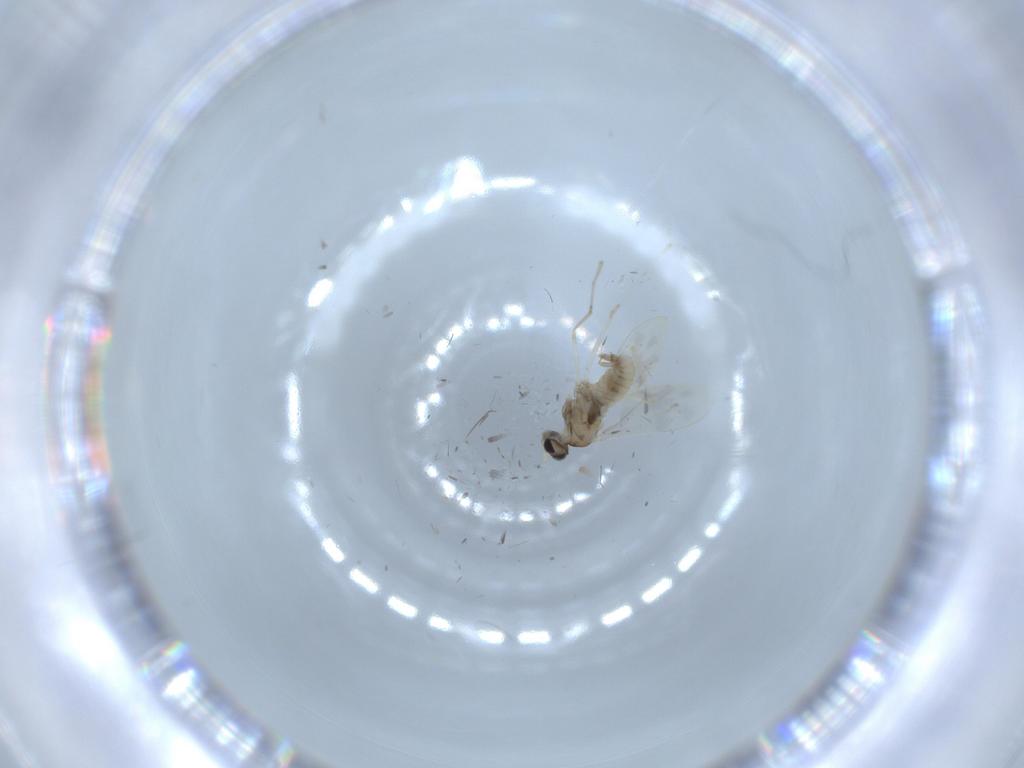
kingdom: Animalia
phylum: Arthropoda
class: Insecta
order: Diptera
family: Cecidomyiidae
